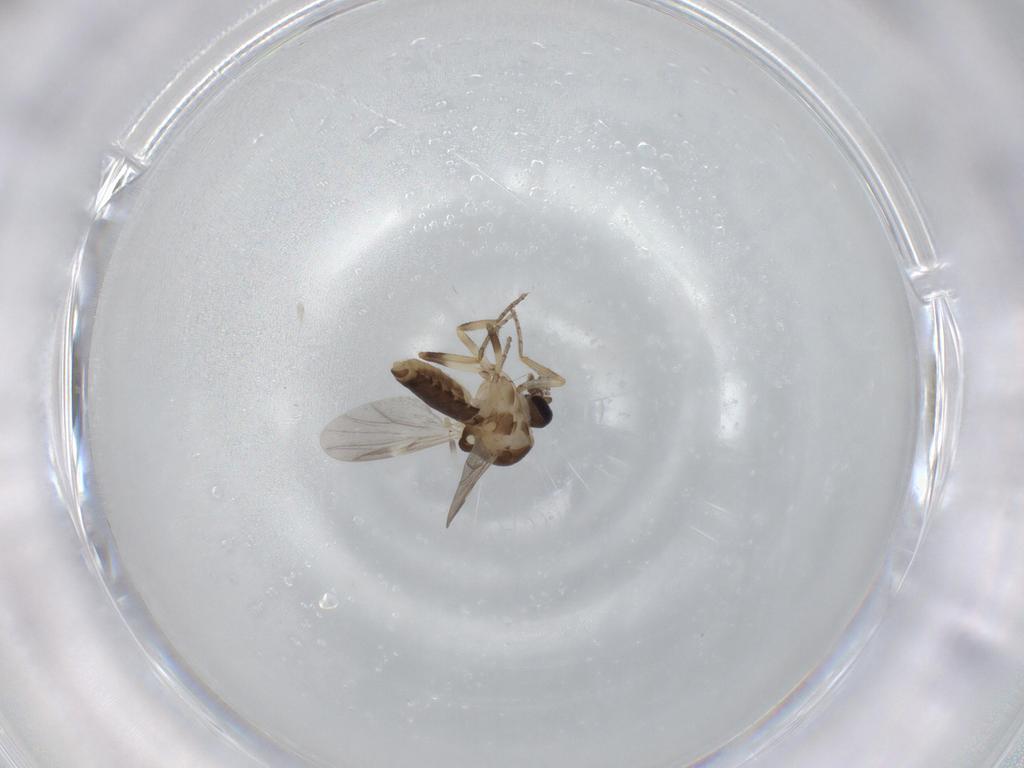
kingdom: Animalia
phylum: Arthropoda
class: Insecta
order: Diptera
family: Ceratopogonidae
